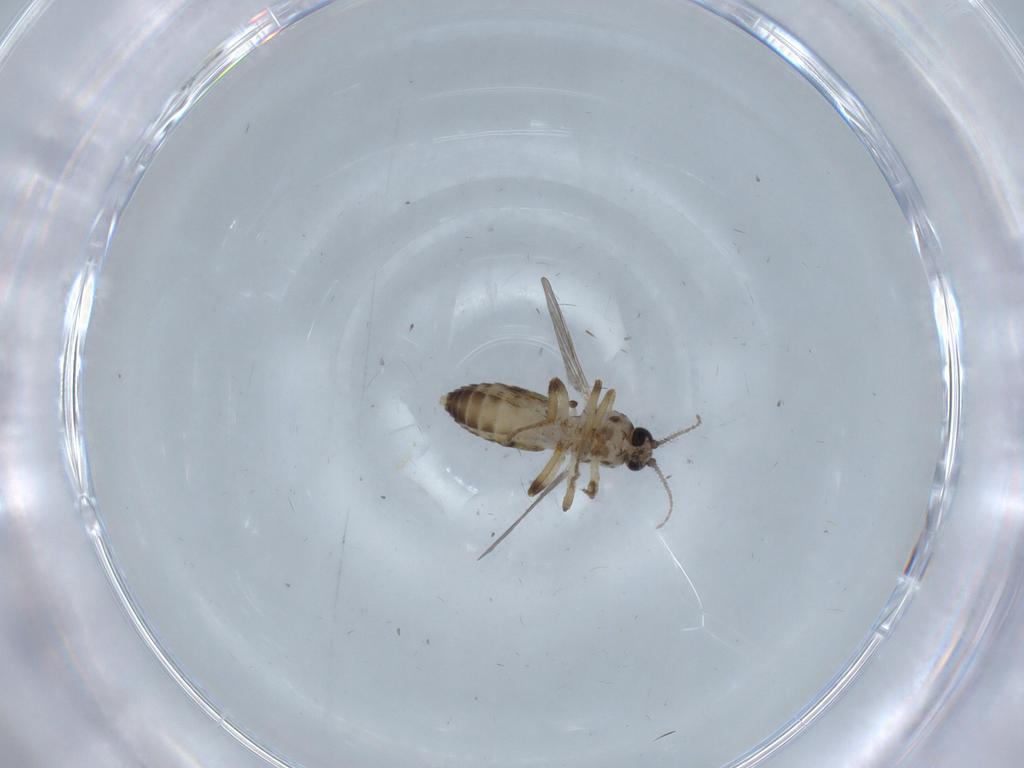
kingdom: Animalia
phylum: Arthropoda
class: Insecta
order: Diptera
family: Ceratopogonidae
